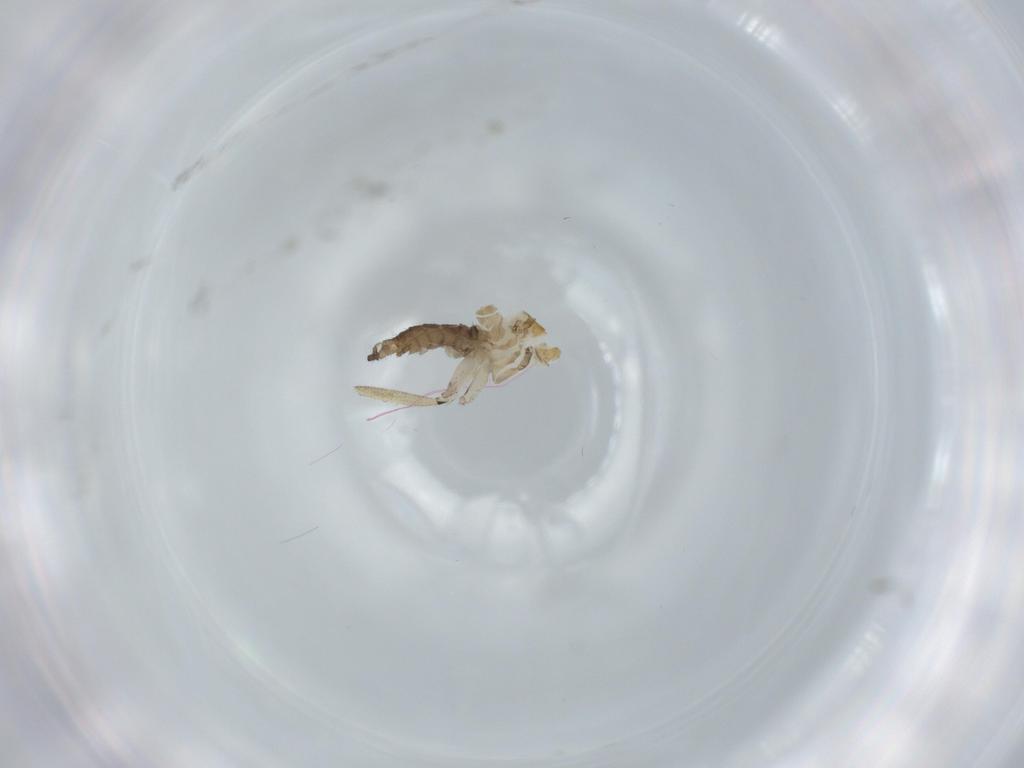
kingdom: Animalia
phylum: Arthropoda
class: Insecta
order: Diptera
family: Sciaridae
